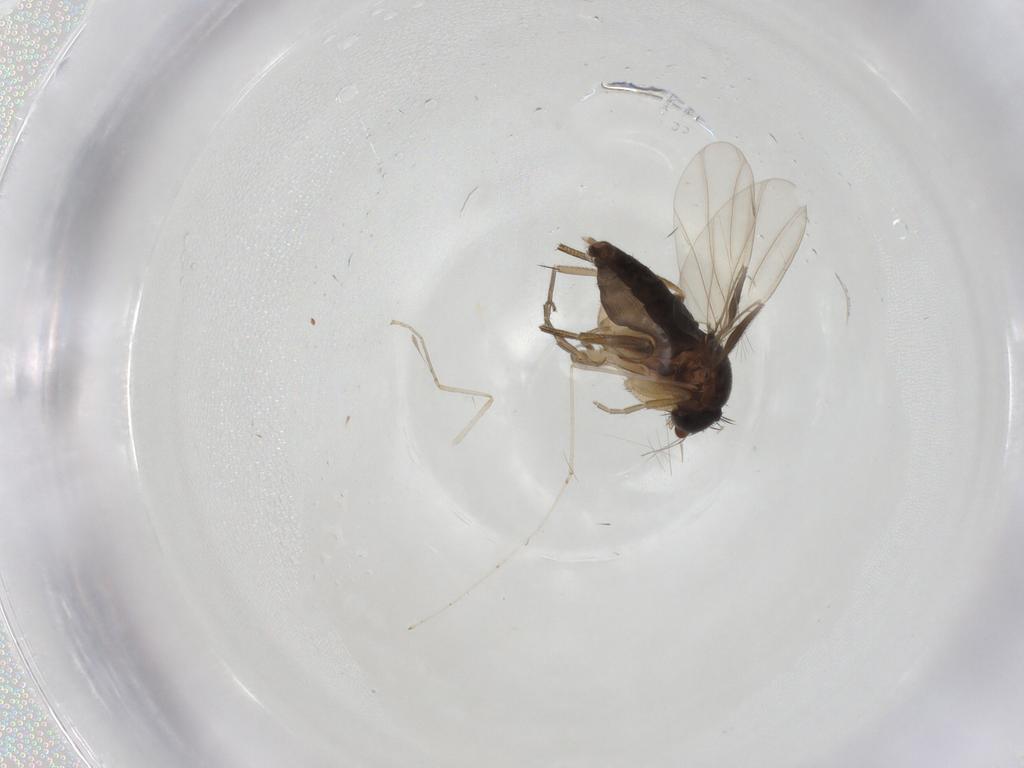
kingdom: Animalia
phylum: Arthropoda
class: Insecta
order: Diptera
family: Phoridae
